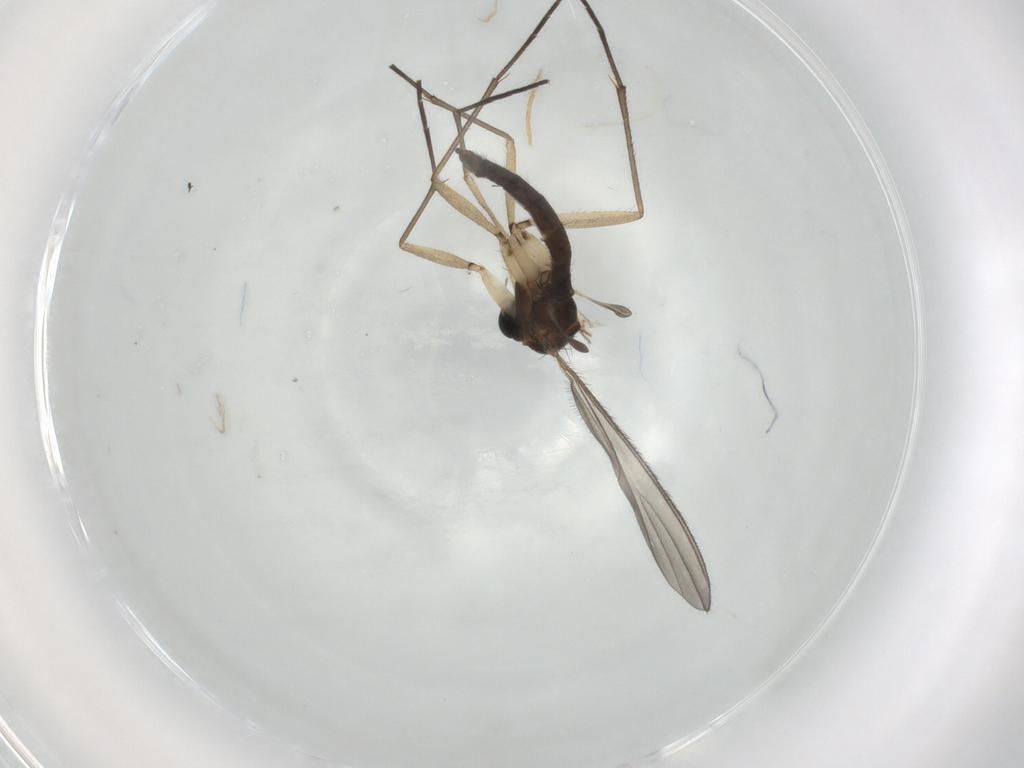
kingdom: Animalia
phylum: Arthropoda
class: Insecta
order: Diptera
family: Sciaridae
